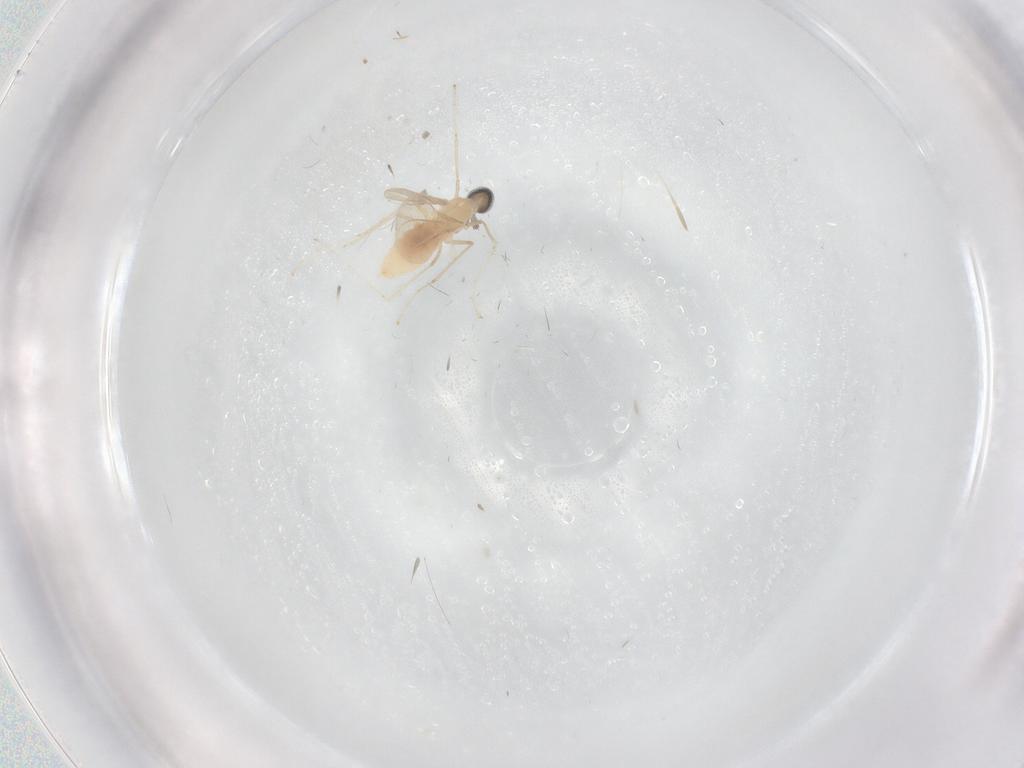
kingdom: Animalia
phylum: Arthropoda
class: Insecta
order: Diptera
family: Cecidomyiidae
